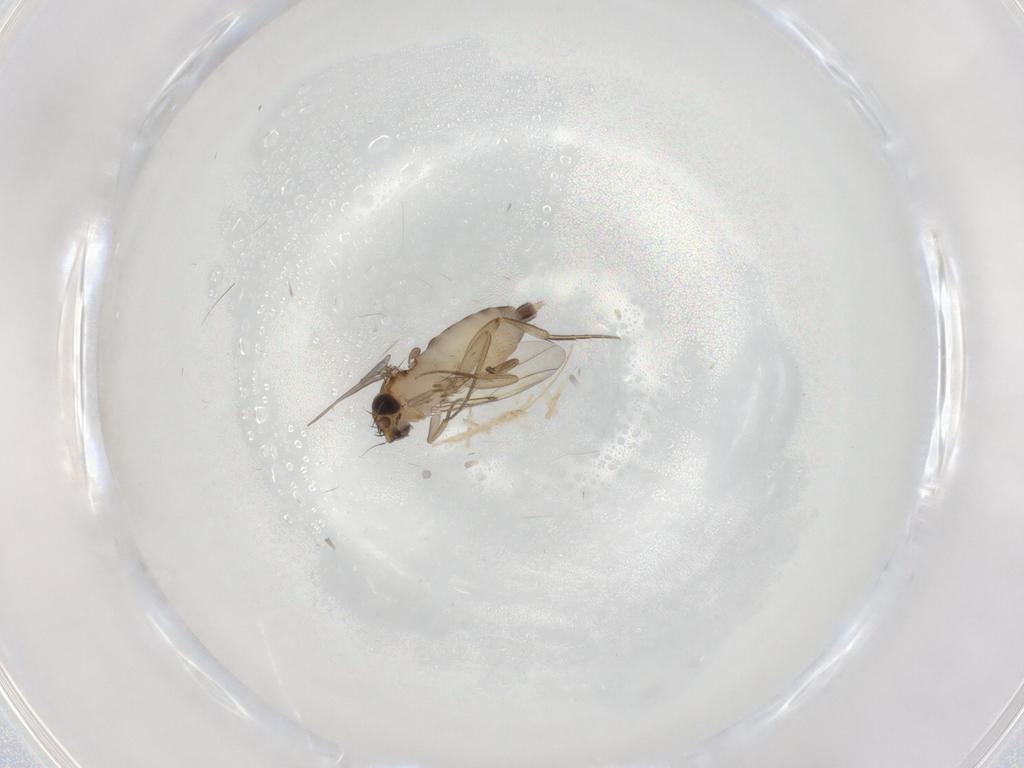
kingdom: Animalia
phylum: Arthropoda
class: Insecta
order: Diptera
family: Phoridae
